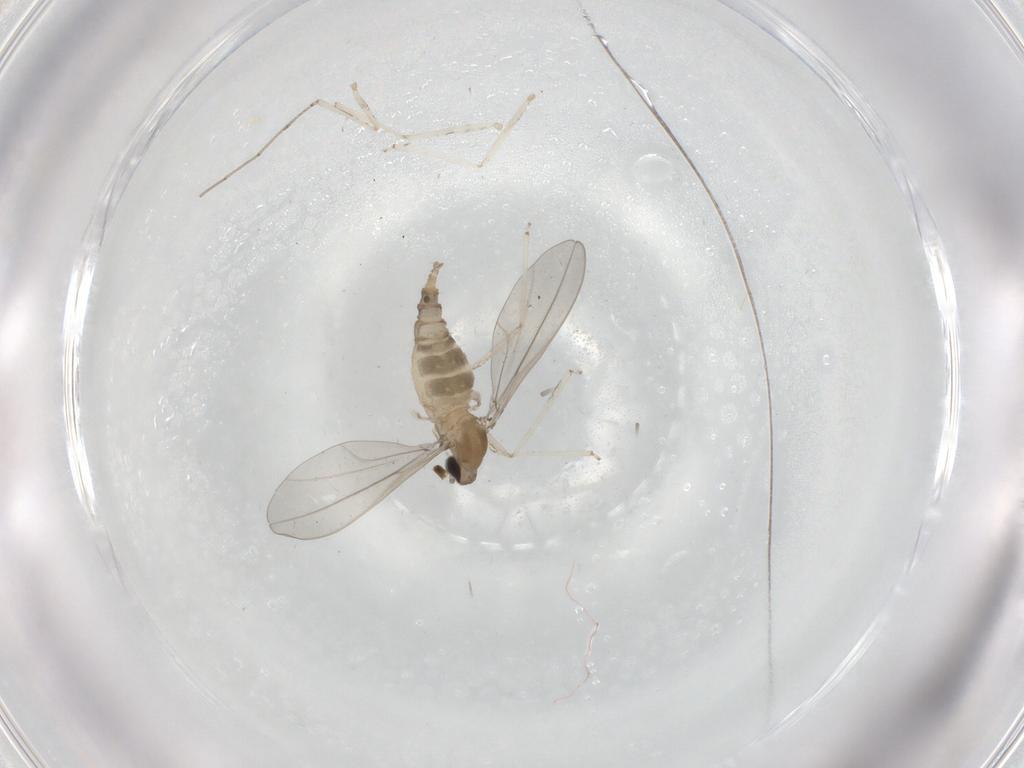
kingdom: Animalia
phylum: Arthropoda
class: Insecta
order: Diptera
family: Cecidomyiidae
